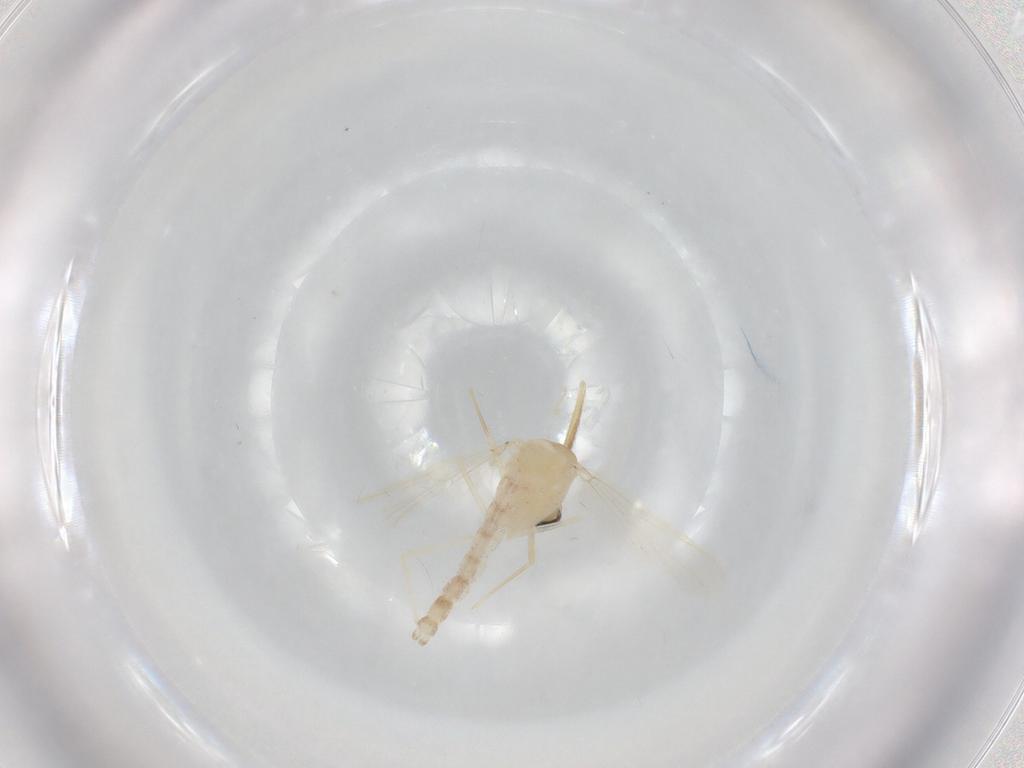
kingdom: Animalia
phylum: Arthropoda
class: Insecta
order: Diptera
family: Chironomidae
